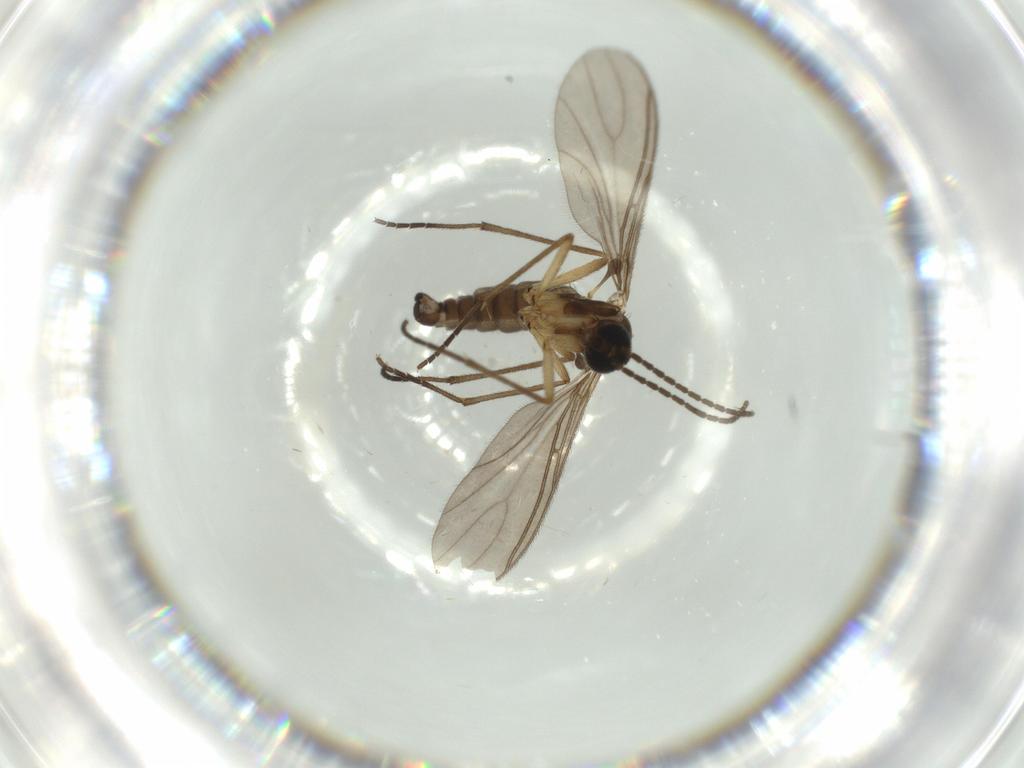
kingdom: Animalia
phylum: Arthropoda
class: Insecta
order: Diptera
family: Sciaridae
